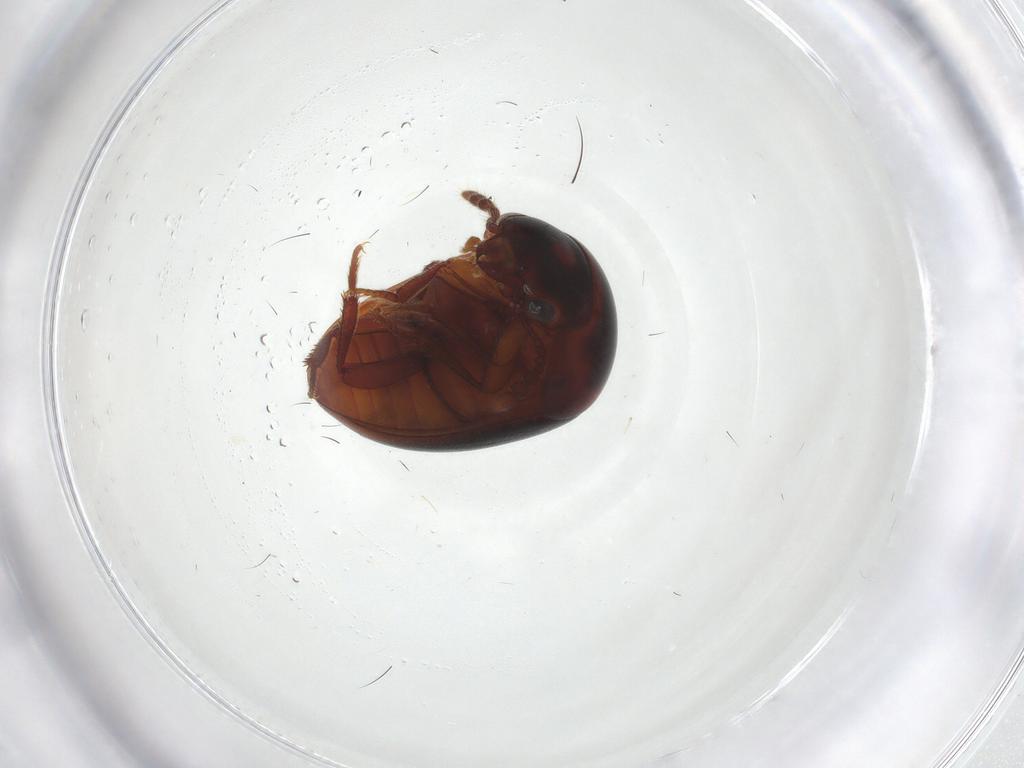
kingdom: Animalia
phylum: Arthropoda
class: Insecta
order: Coleoptera
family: Leiodidae
